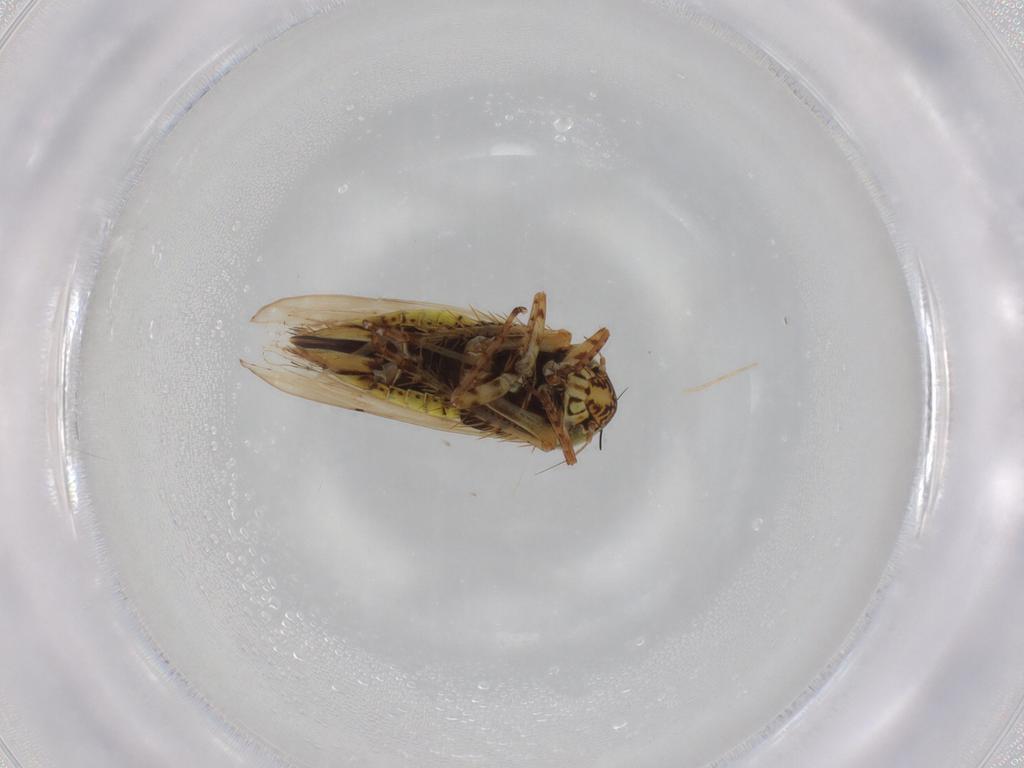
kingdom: Animalia
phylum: Arthropoda
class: Insecta
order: Hemiptera
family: Cicadellidae
